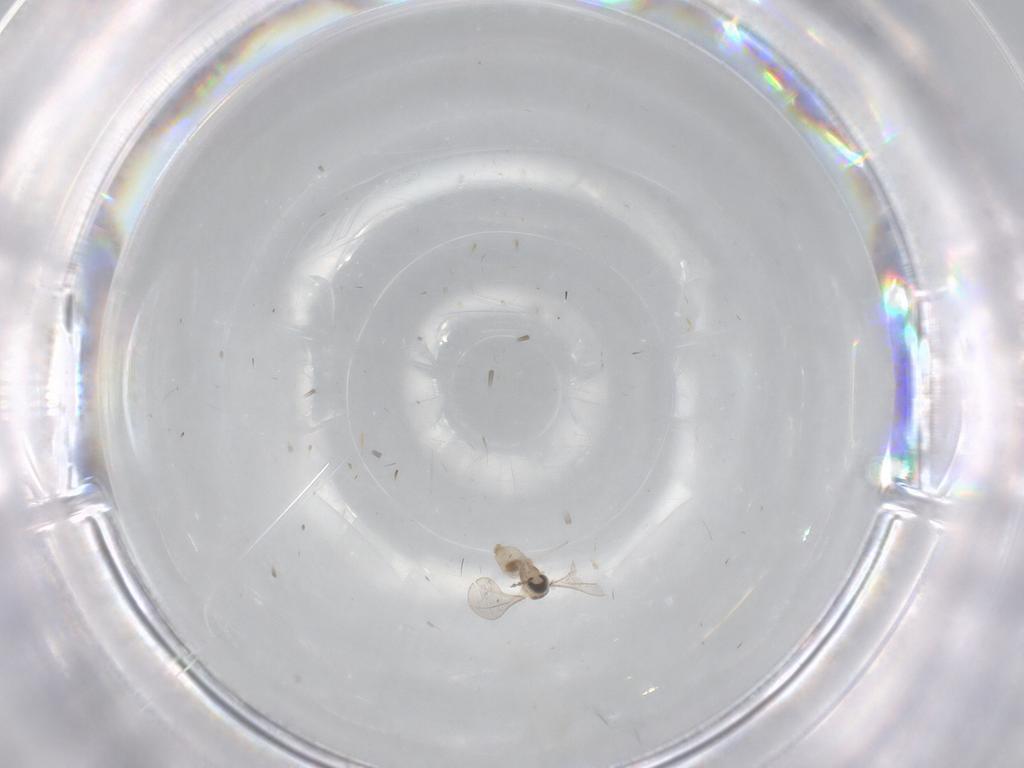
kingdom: Animalia
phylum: Arthropoda
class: Insecta
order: Diptera
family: Cecidomyiidae
